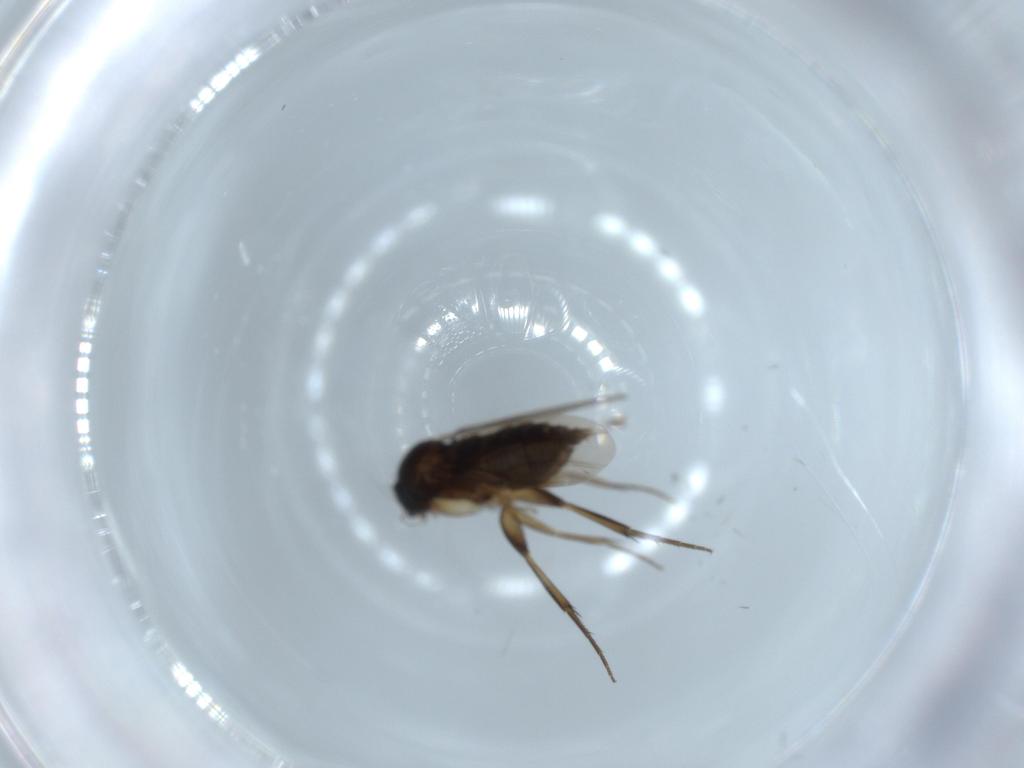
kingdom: Animalia
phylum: Arthropoda
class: Insecta
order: Diptera
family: Phoridae
